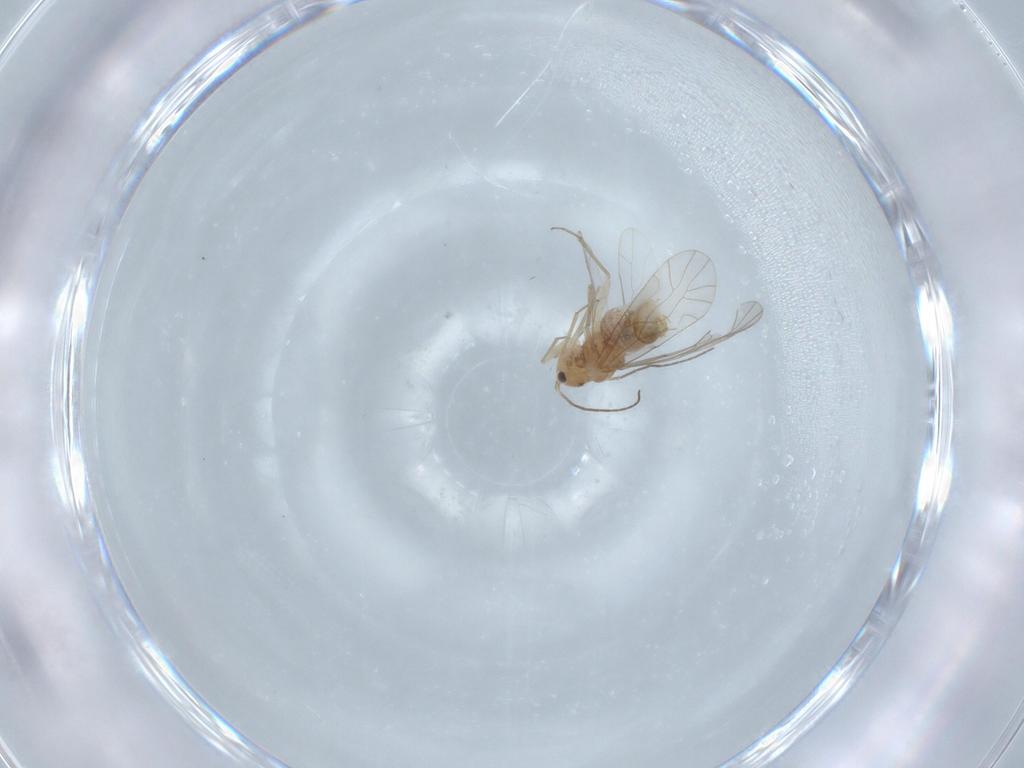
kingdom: Animalia
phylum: Arthropoda
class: Insecta
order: Psocodea
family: Lachesillidae
